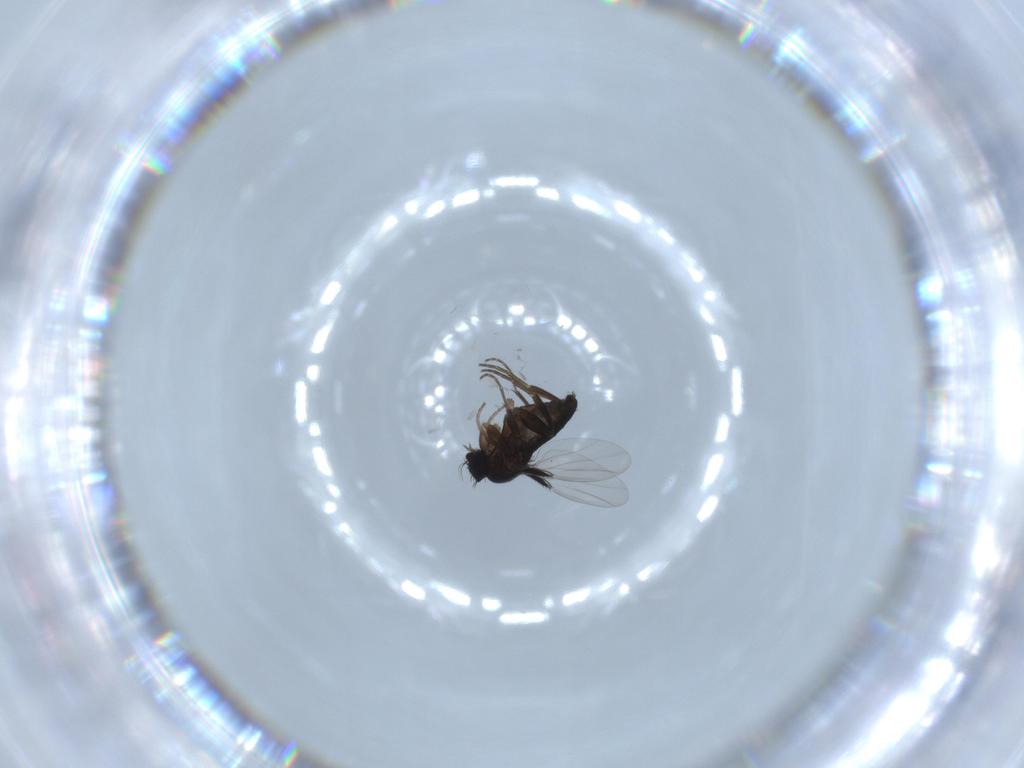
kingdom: Animalia
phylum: Arthropoda
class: Insecta
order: Diptera
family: Phoridae
